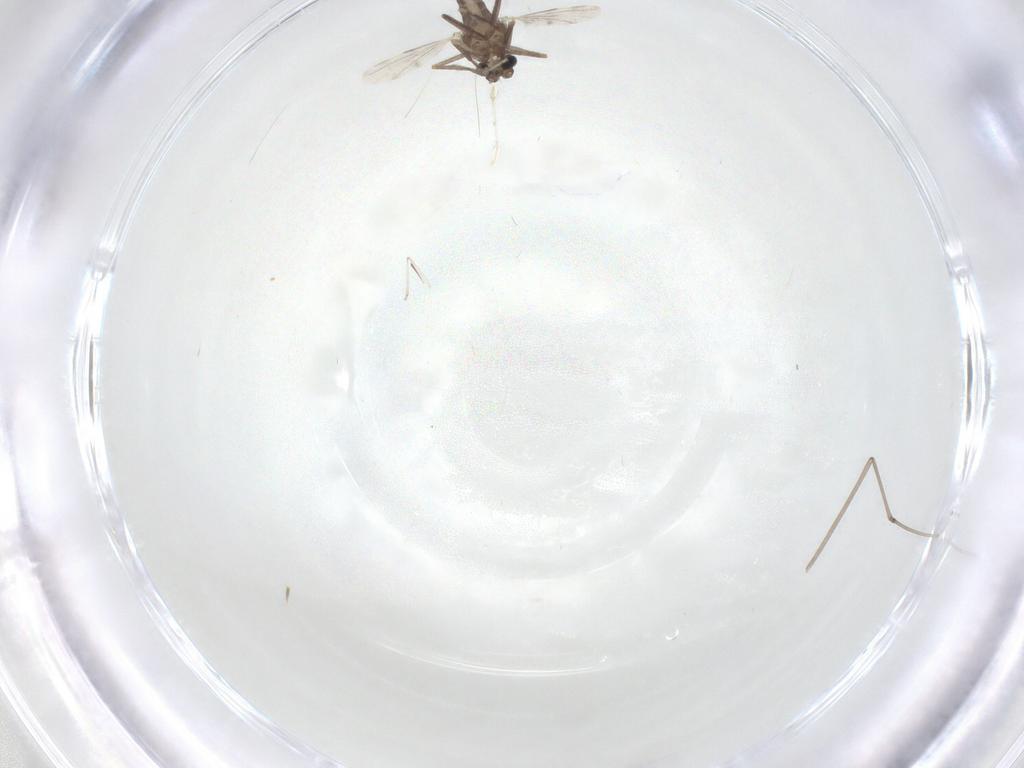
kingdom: Animalia
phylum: Arthropoda
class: Insecta
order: Diptera
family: Ceratopogonidae
